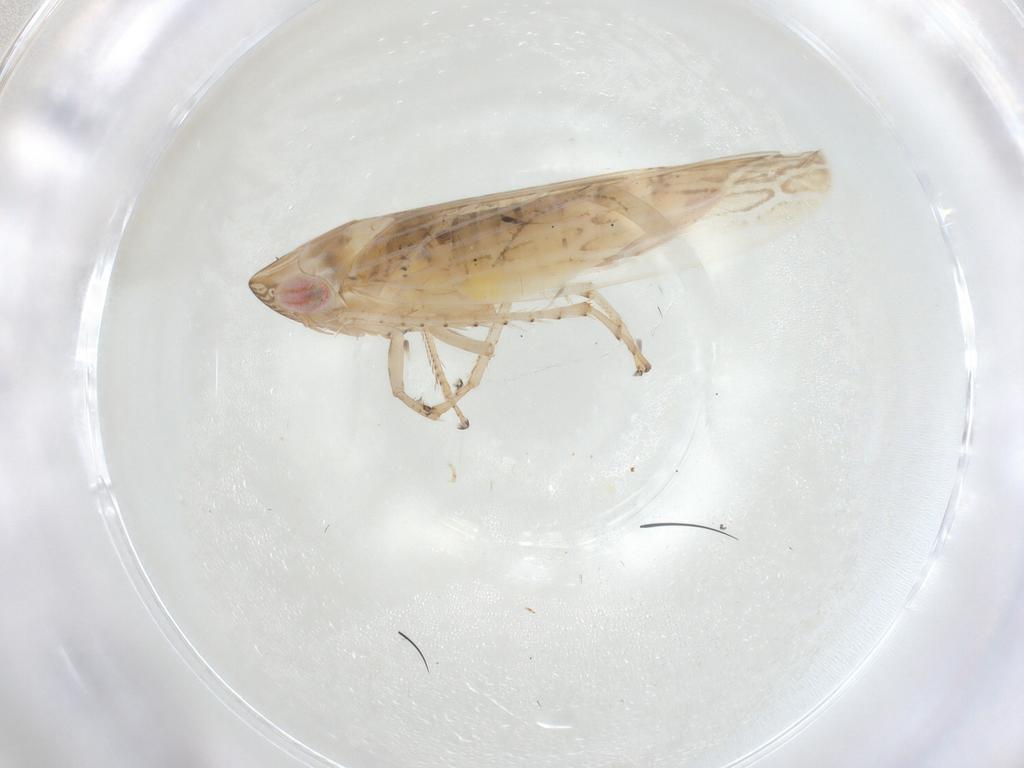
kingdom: Animalia
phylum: Arthropoda
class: Insecta
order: Hemiptera
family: Cicadellidae
